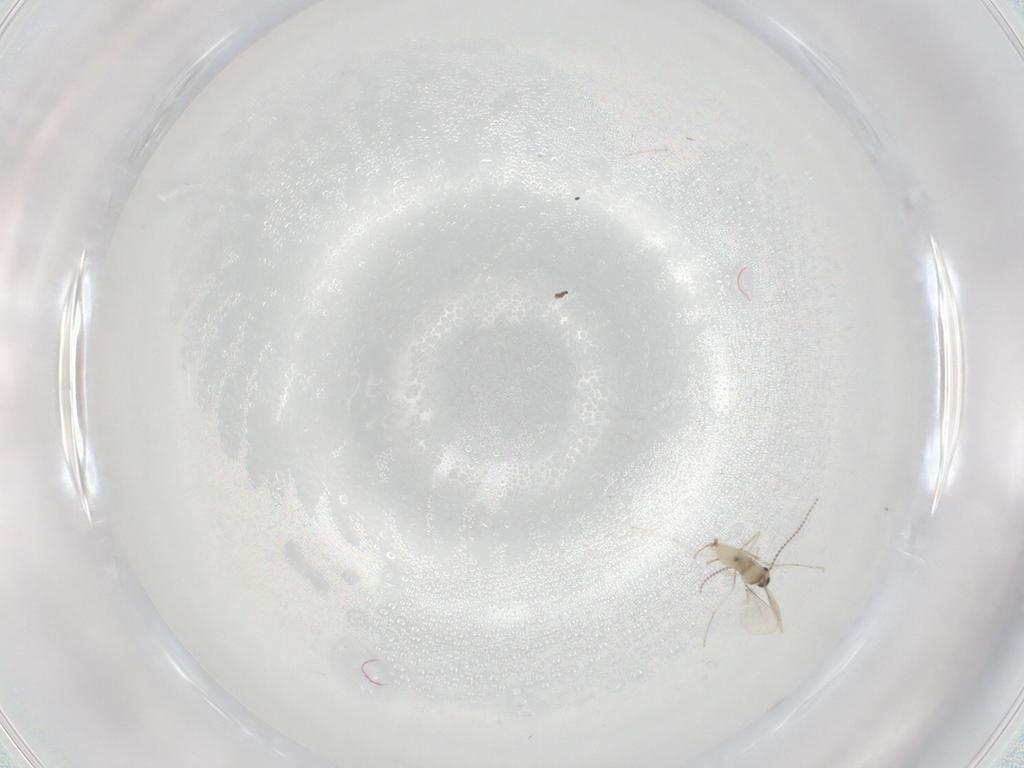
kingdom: Animalia
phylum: Arthropoda
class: Insecta
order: Diptera
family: Cecidomyiidae
